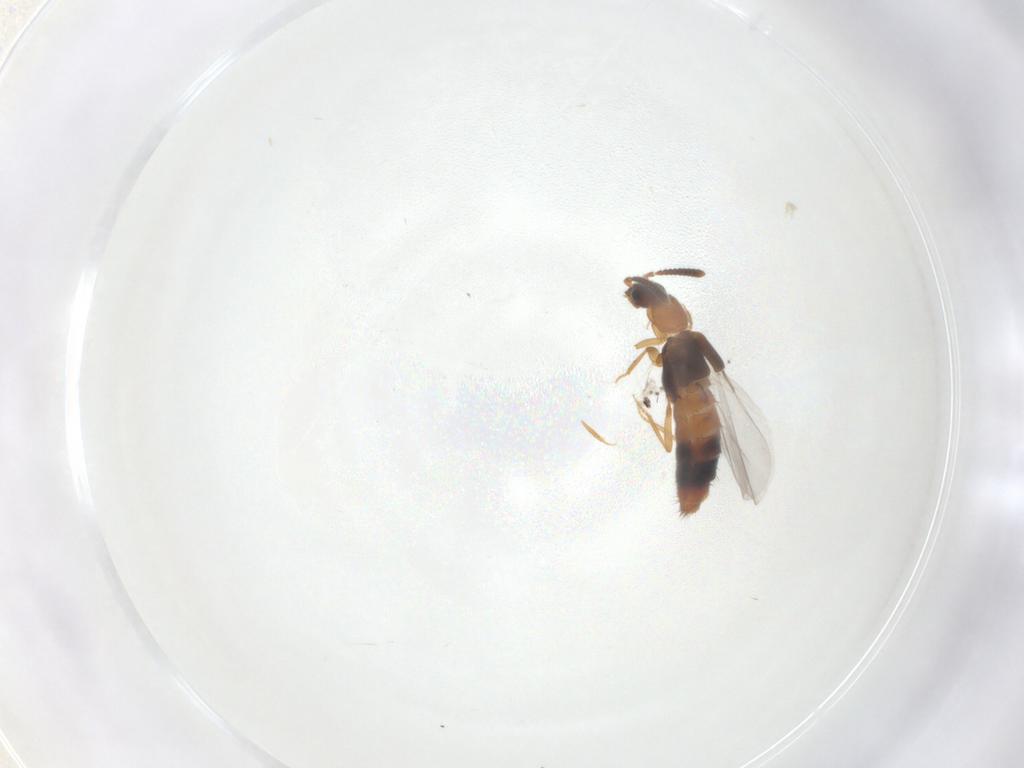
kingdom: Animalia
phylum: Arthropoda
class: Insecta
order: Coleoptera
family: Staphylinidae
